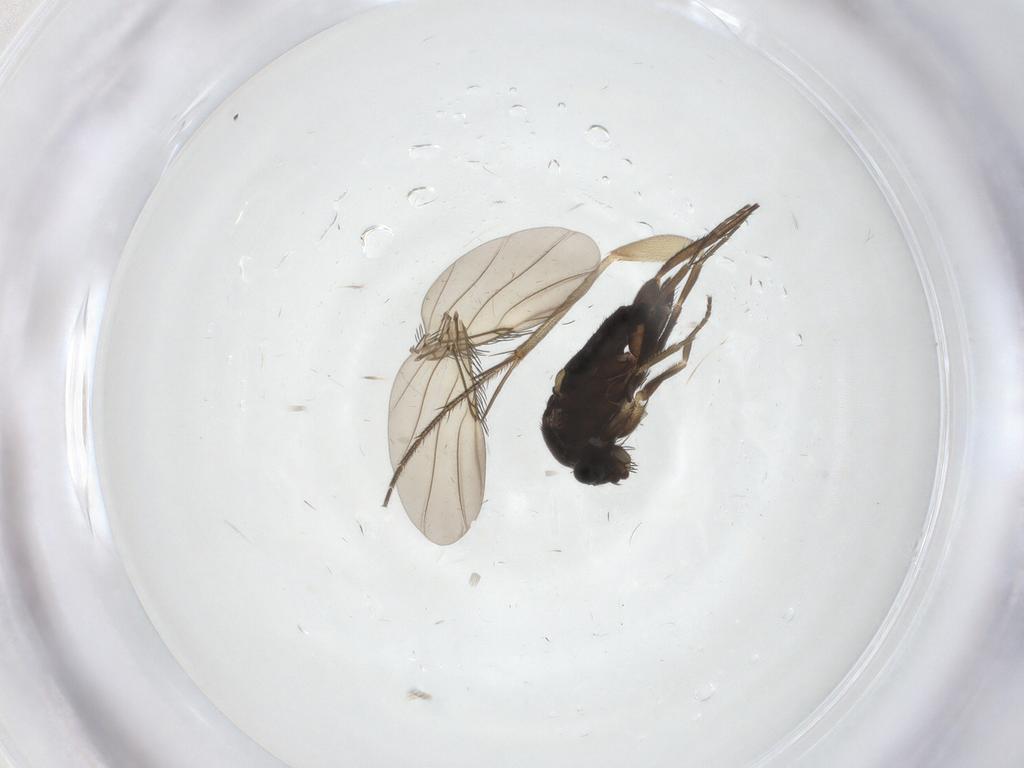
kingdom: Animalia
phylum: Arthropoda
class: Insecta
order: Diptera
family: Phoridae
